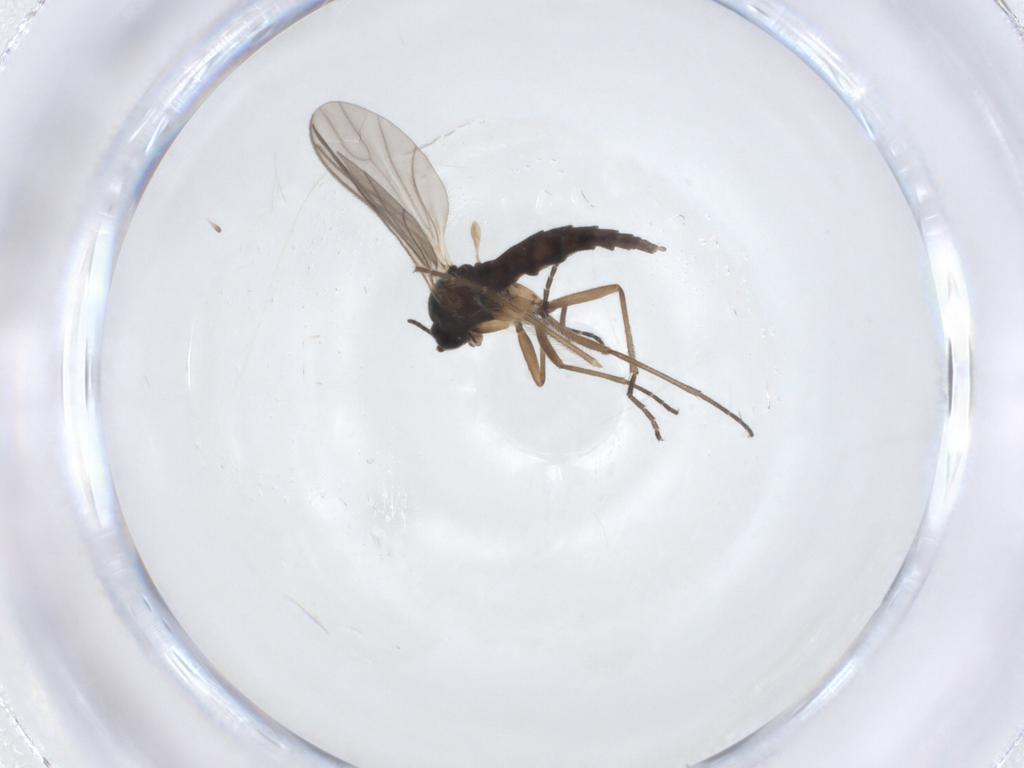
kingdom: Animalia
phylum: Arthropoda
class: Insecta
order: Diptera
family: Sciaridae
